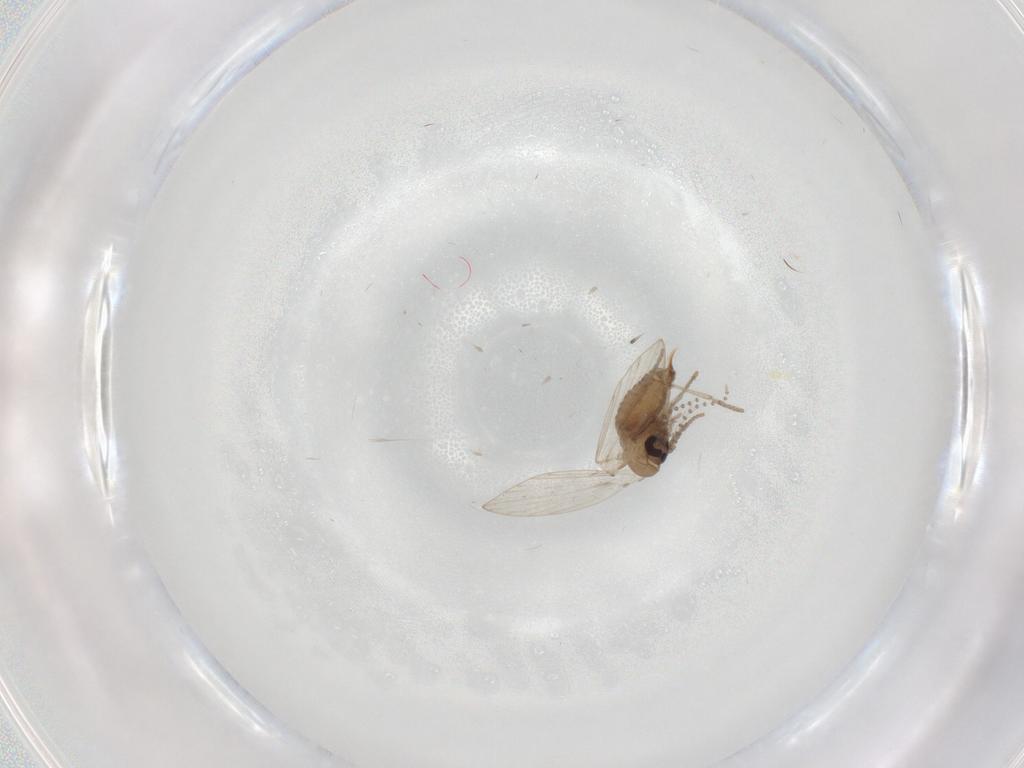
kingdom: Animalia
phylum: Arthropoda
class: Insecta
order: Diptera
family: Psychodidae
